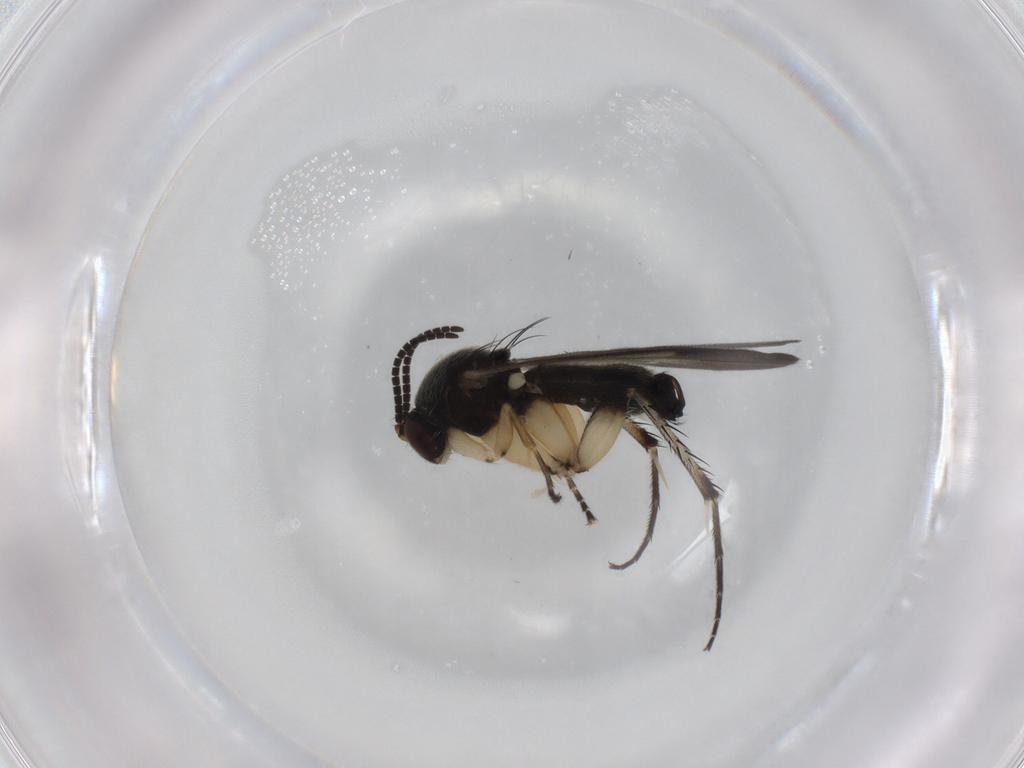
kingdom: Animalia
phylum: Arthropoda
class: Insecta
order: Diptera
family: Mycetophilidae
